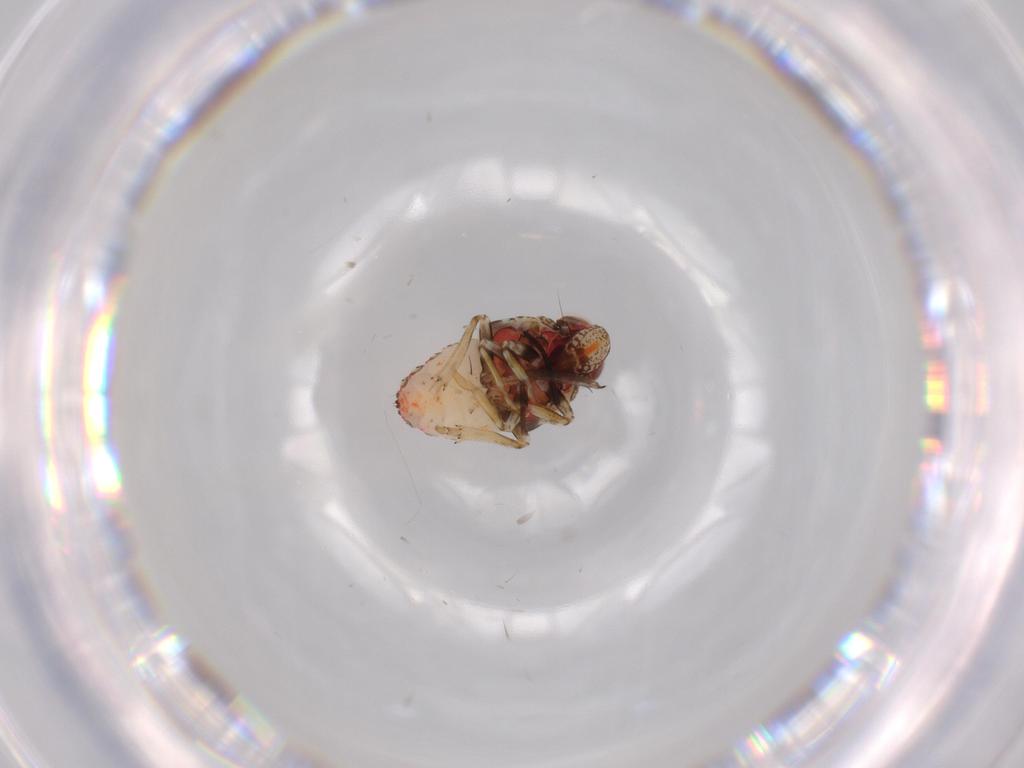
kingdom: Animalia
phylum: Arthropoda
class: Insecta
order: Hemiptera
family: Issidae
